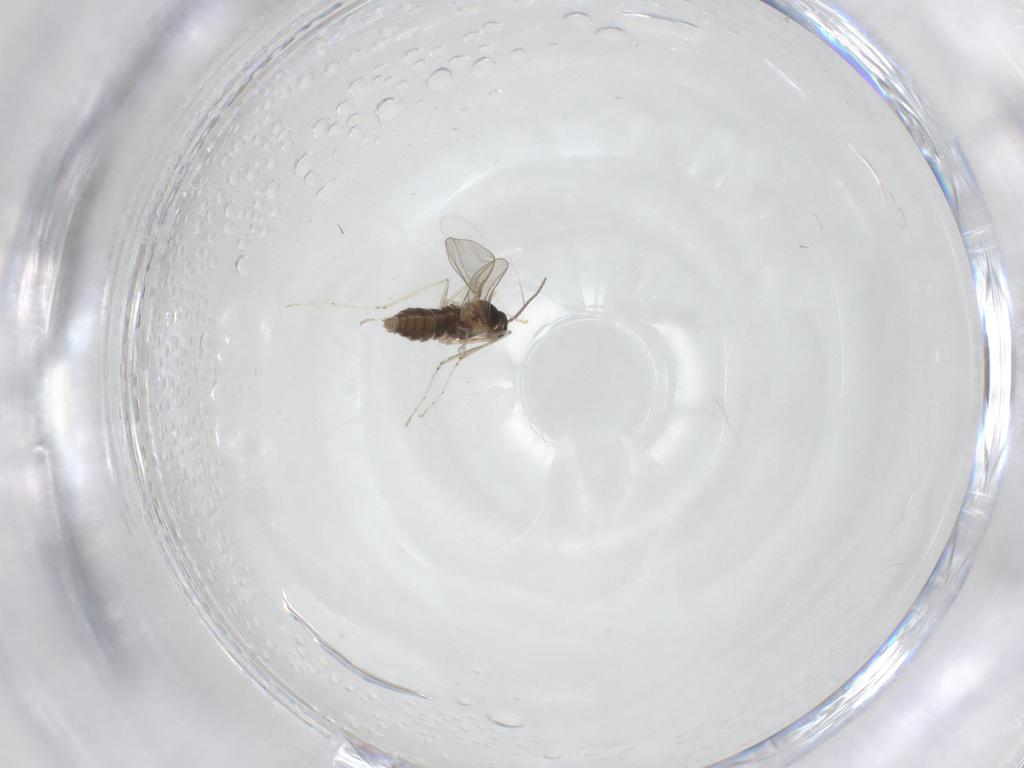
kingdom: Animalia
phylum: Arthropoda
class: Insecta
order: Diptera
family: Cecidomyiidae
